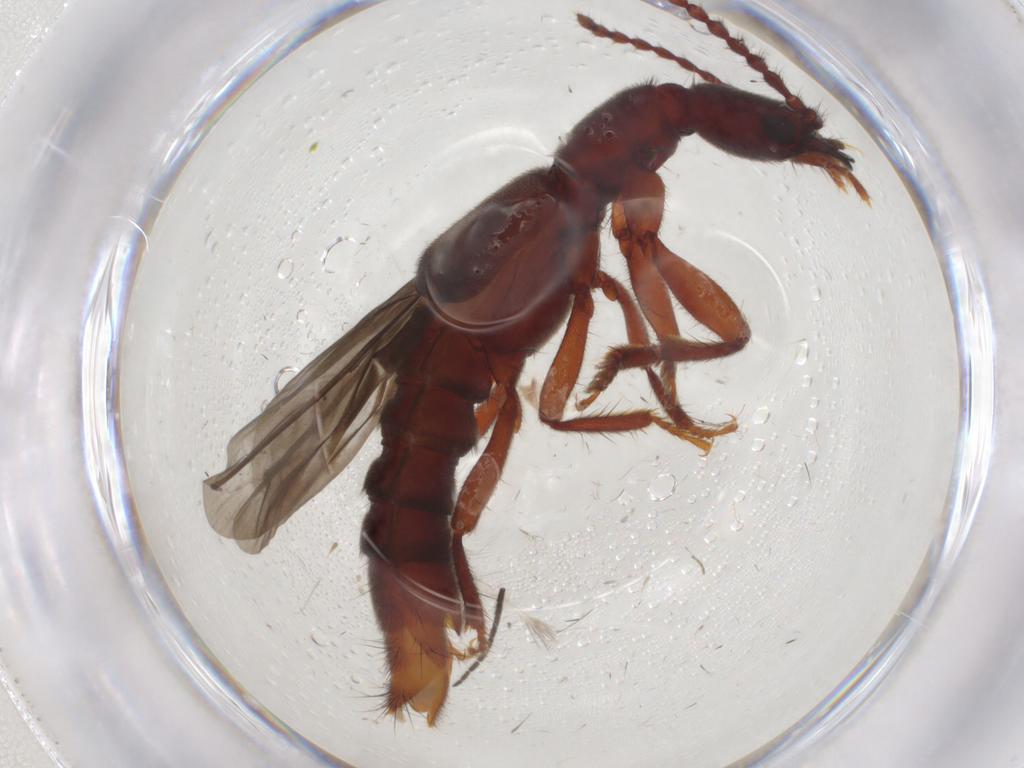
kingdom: Animalia
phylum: Arthropoda
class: Insecta
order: Coleoptera
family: Staphylinidae
